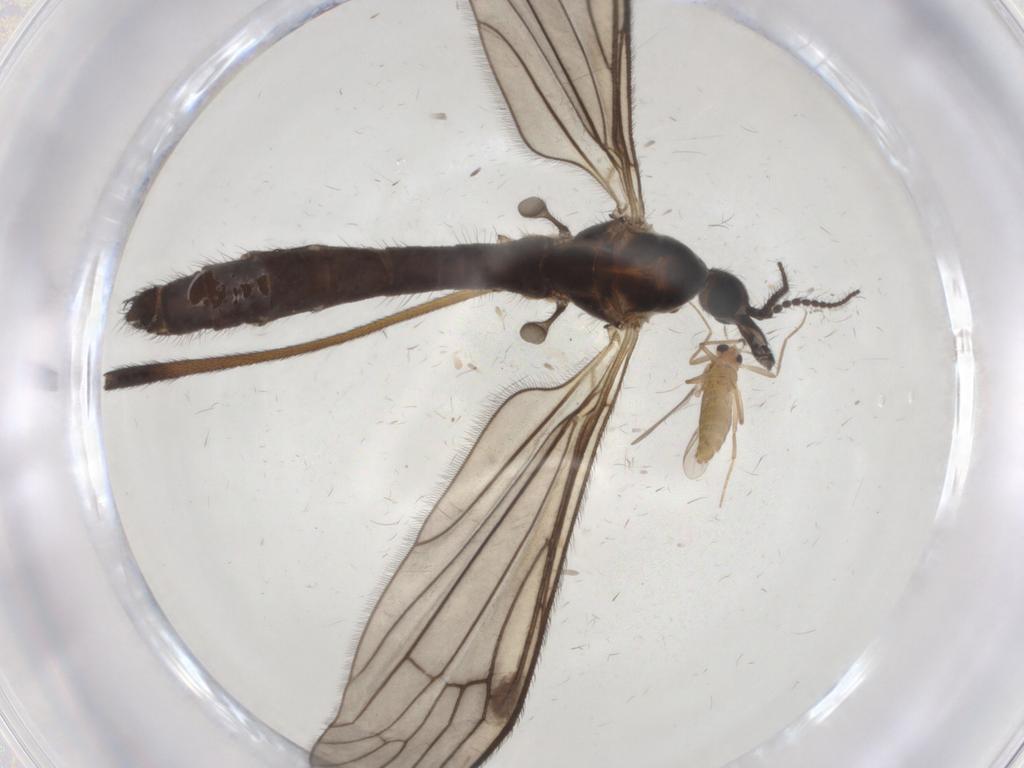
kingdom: Animalia
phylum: Arthropoda
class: Insecta
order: Diptera
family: Limoniidae
